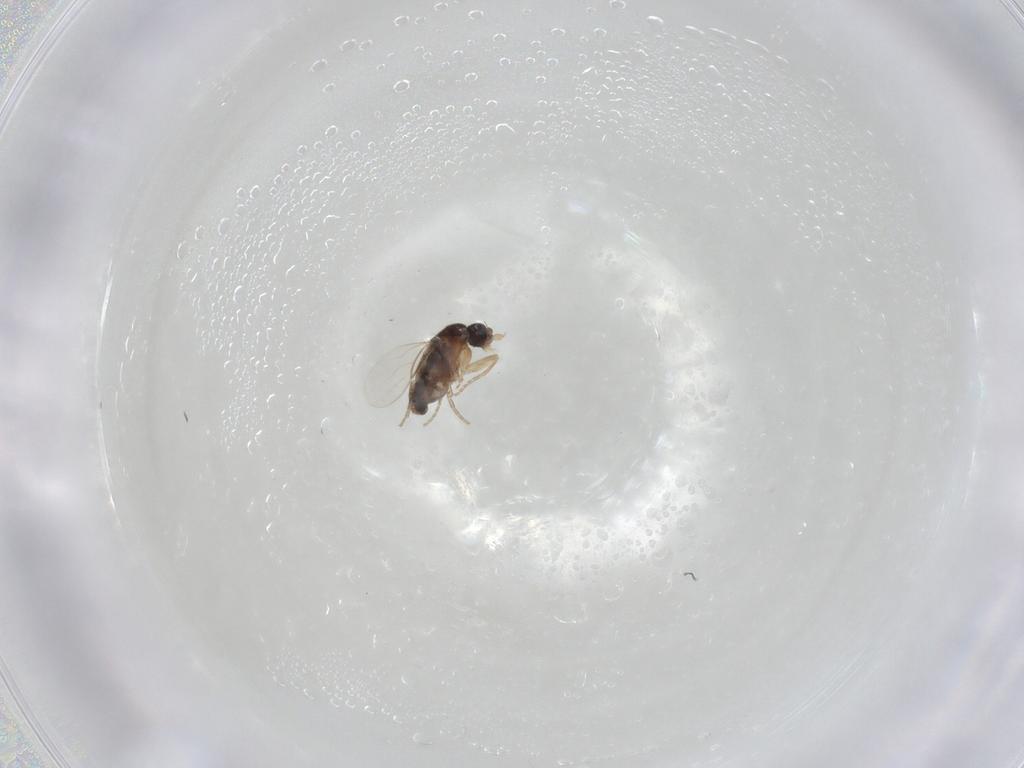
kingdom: Animalia
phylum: Arthropoda
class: Insecta
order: Diptera
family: Phoridae
